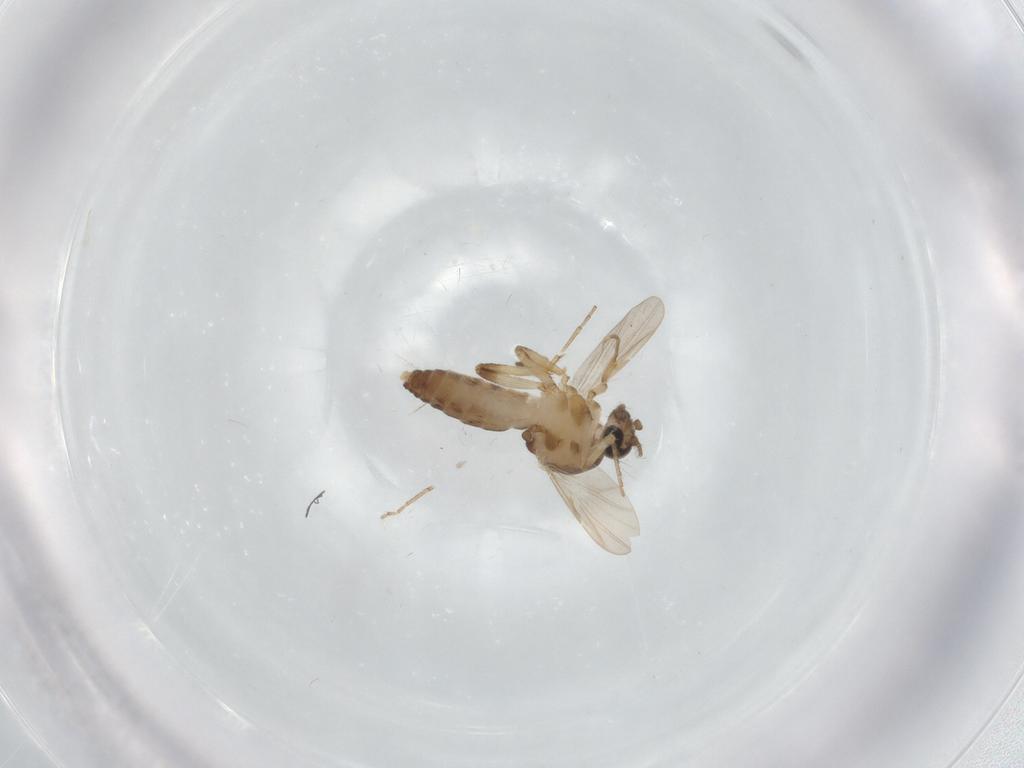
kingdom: Animalia
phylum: Arthropoda
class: Insecta
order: Diptera
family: Ceratopogonidae
